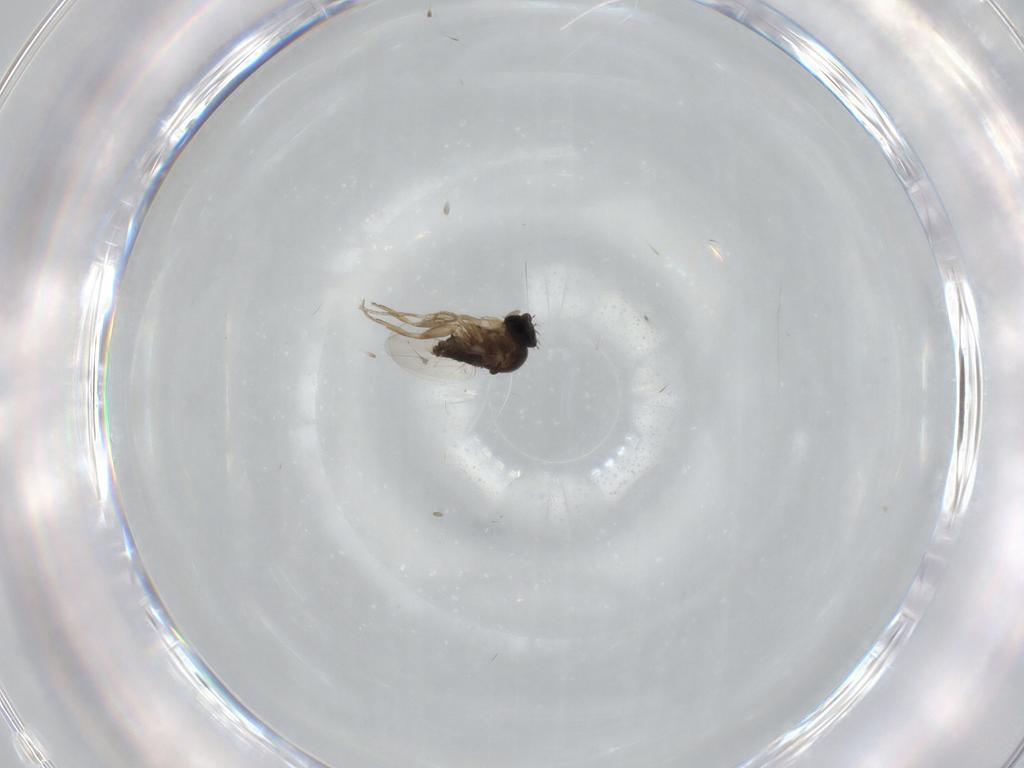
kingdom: Animalia
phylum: Arthropoda
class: Insecta
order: Diptera
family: Phoridae
